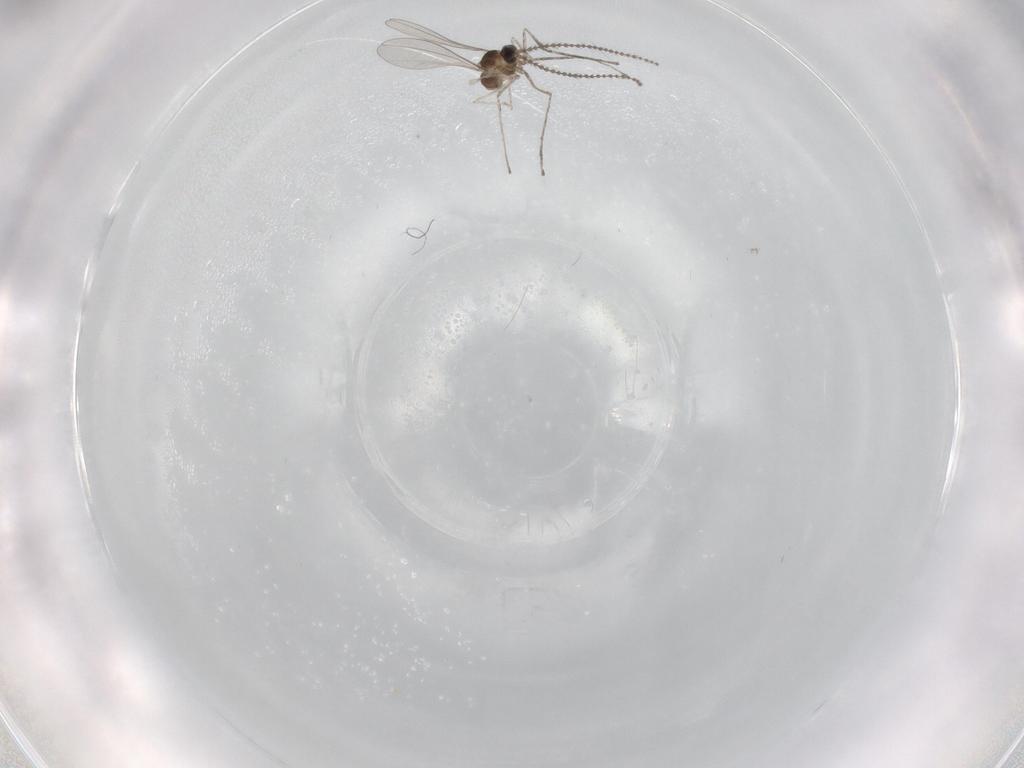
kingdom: Animalia
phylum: Arthropoda
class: Insecta
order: Diptera
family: Cecidomyiidae
